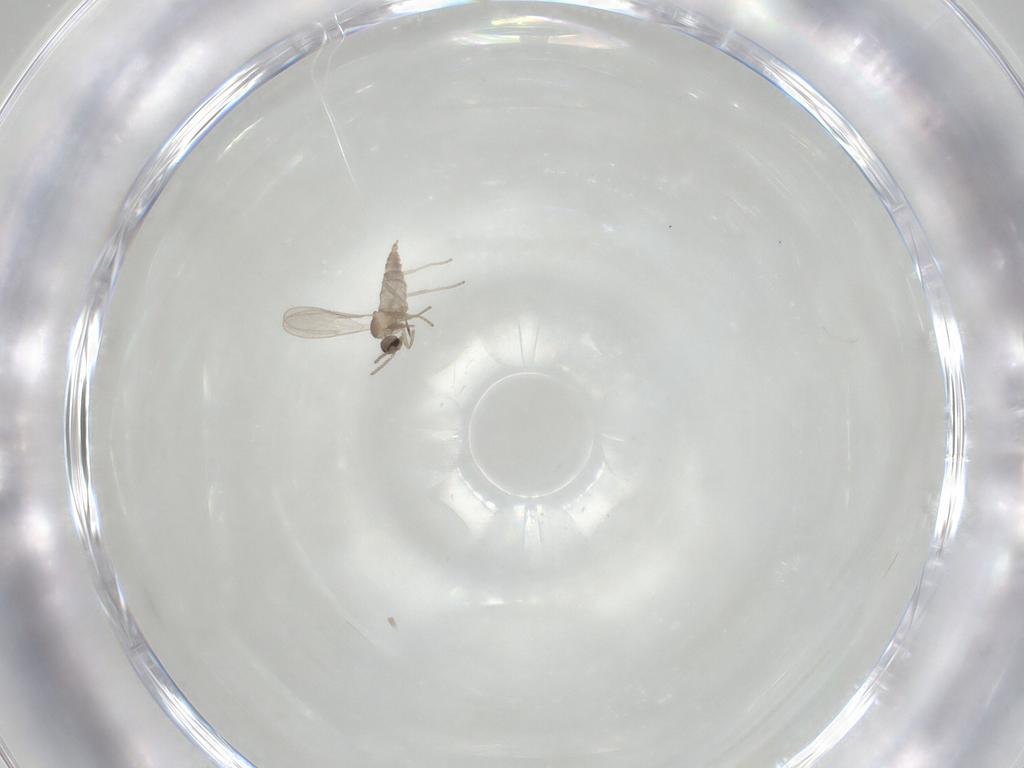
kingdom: Animalia
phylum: Arthropoda
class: Insecta
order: Diptera
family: Cecidomyiidae
